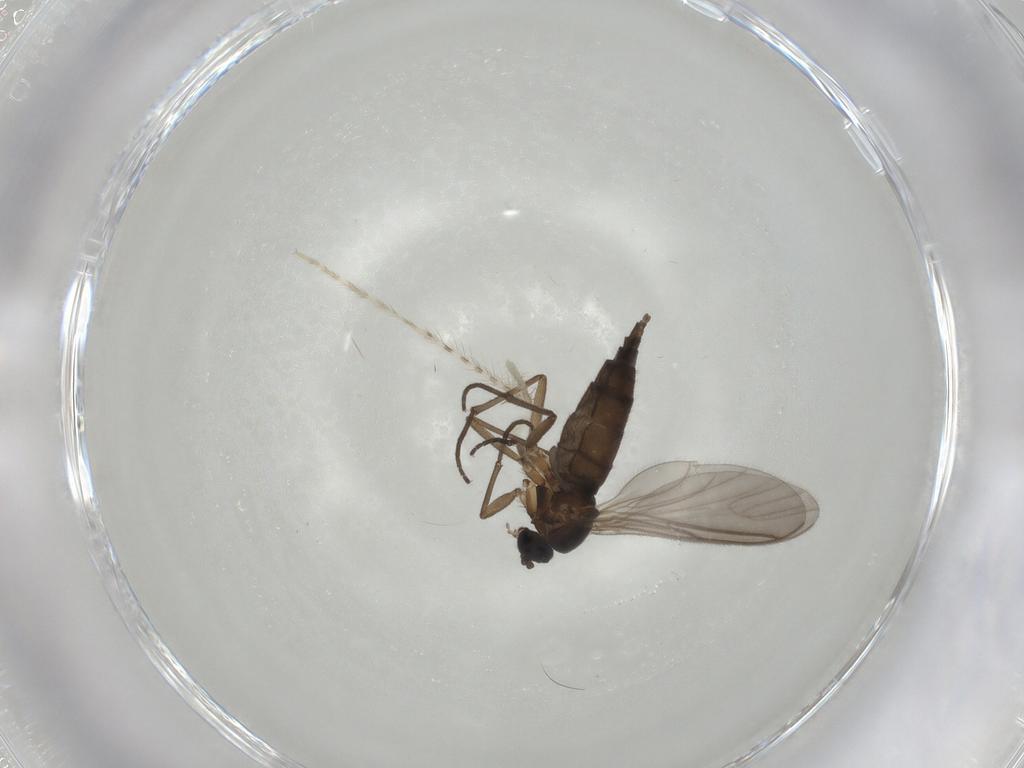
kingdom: Animalia
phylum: Arthropoda
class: Insecta
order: Diptera
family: Sciaridae
